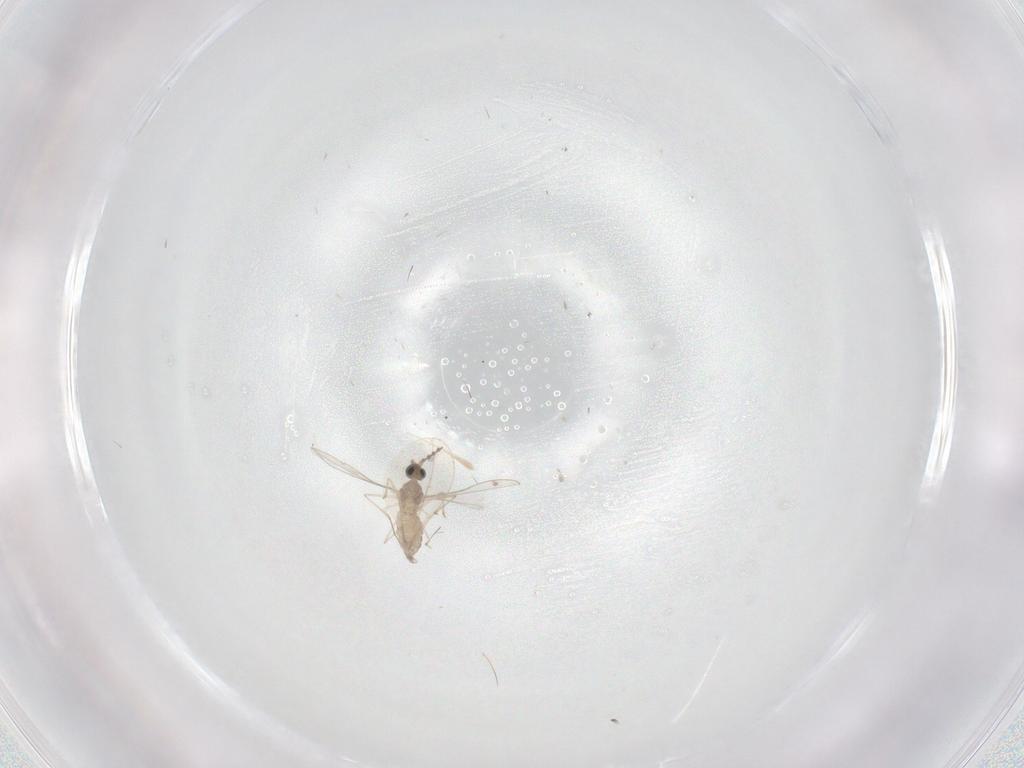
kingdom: Animalia
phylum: Arthropoda
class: Insecta
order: Diptera
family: Cecidomyiidae
